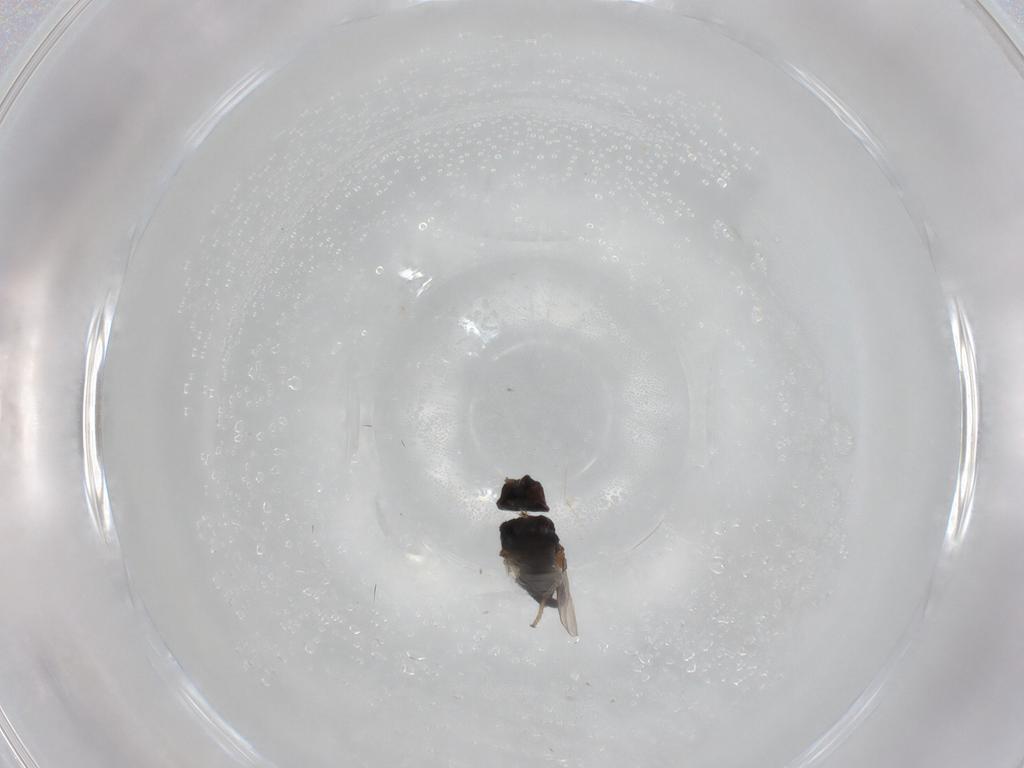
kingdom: Animalia
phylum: Arthropoda
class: Insecta
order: Diptera
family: Milichiidae
